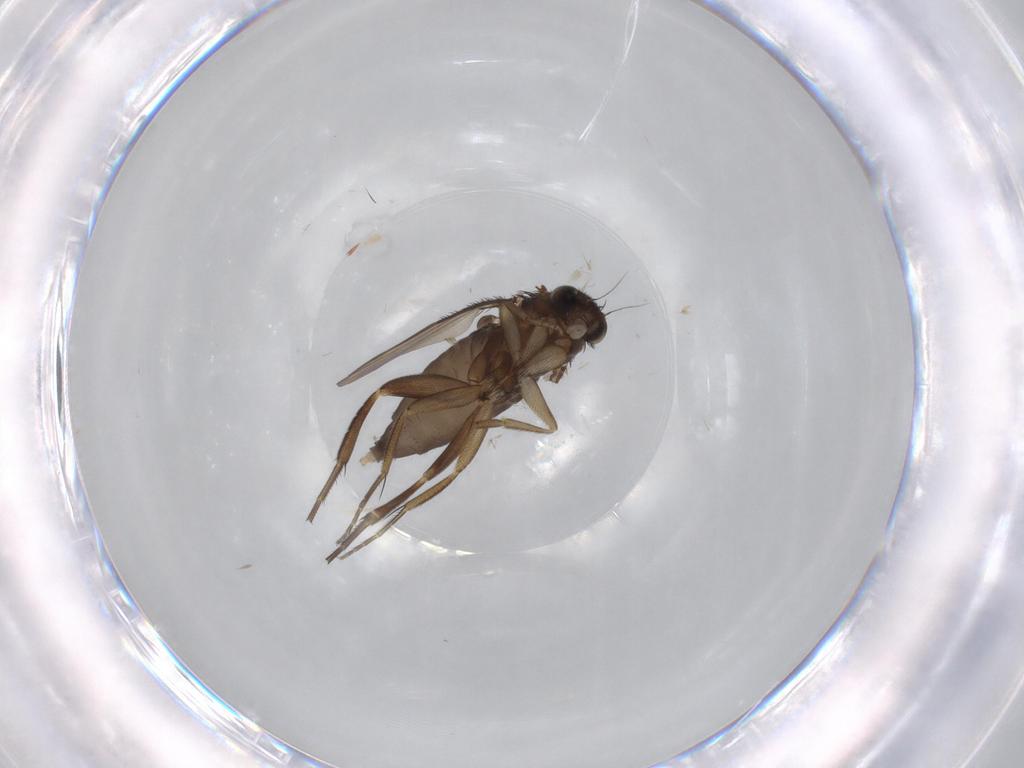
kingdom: Animalia
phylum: Arthropoda
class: Insecta
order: Diptera
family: Phoridae
